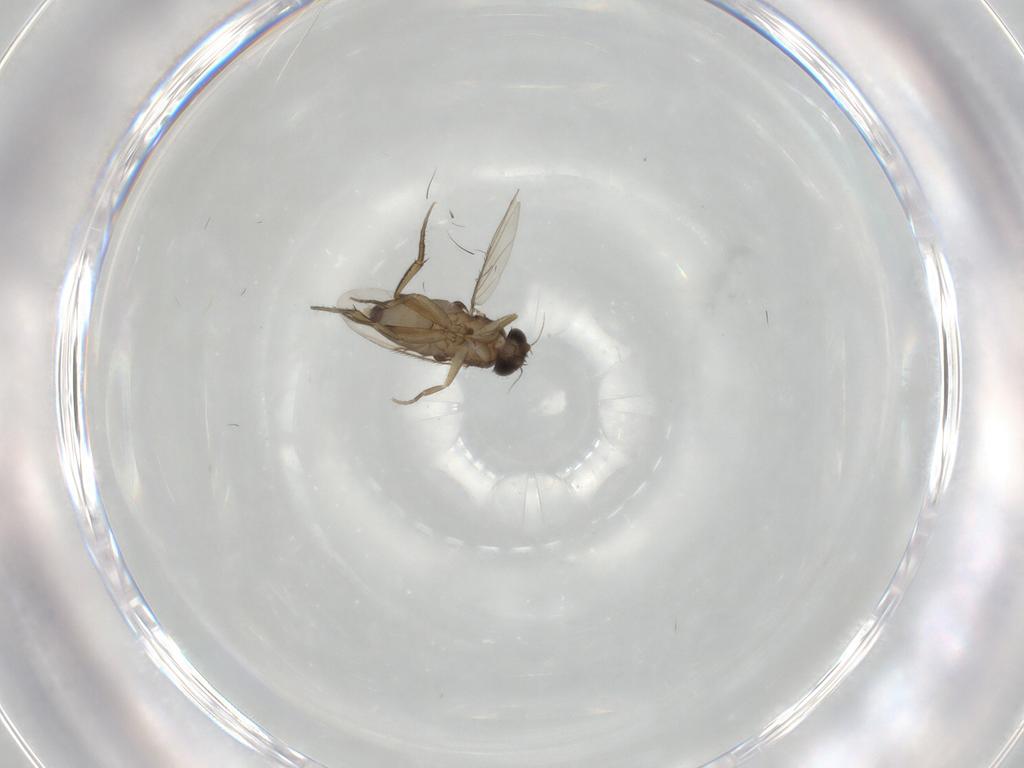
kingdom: Animalia
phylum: Arthropoda
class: Insecta
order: Diptera
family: Phoridae
